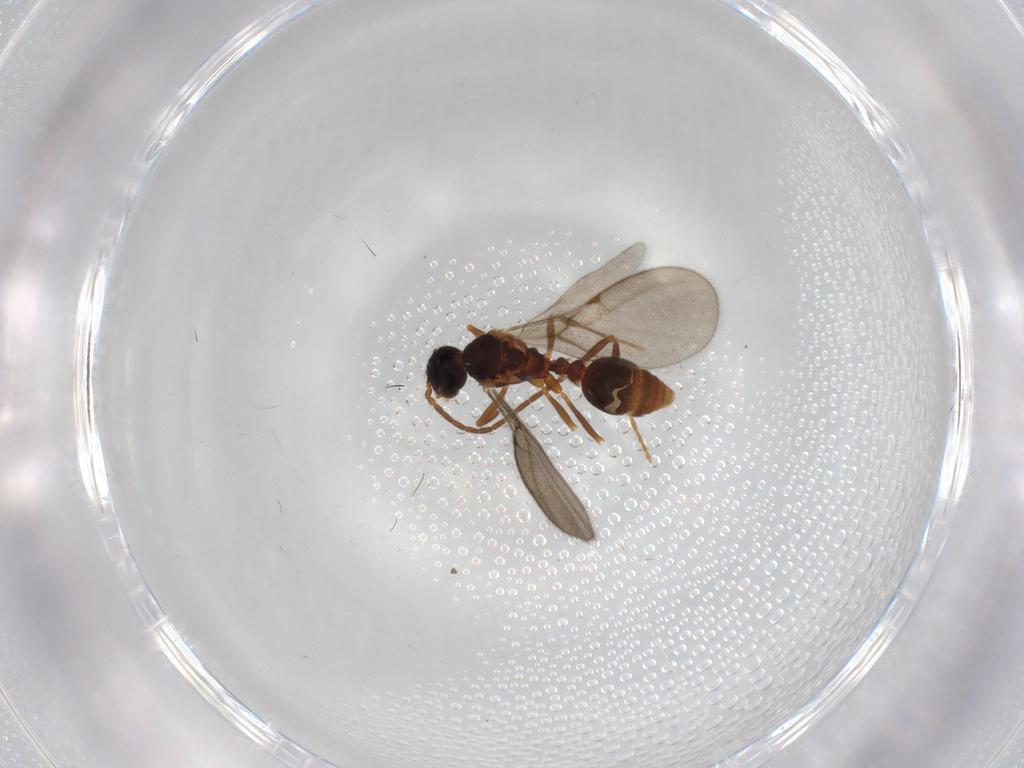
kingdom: Animalia
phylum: Arthropoda
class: Insecta
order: Hymenoptera
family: Formicidae
